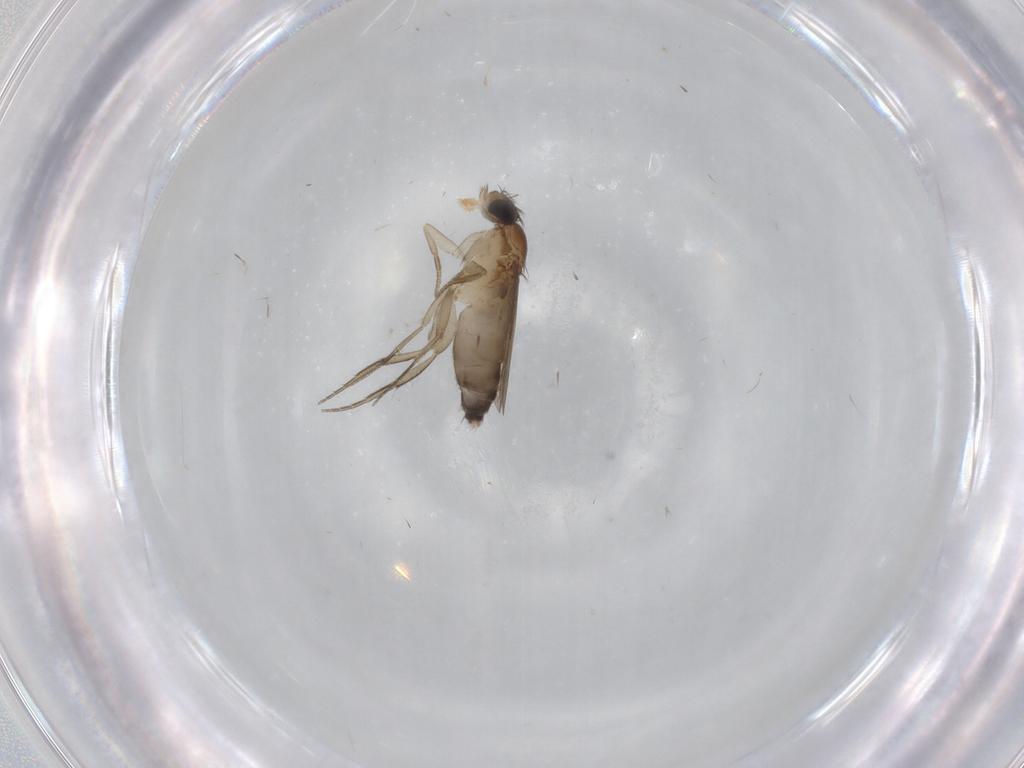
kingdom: Animalia
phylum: Arthropoda
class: Insecta
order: Diptera
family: Phoridae
